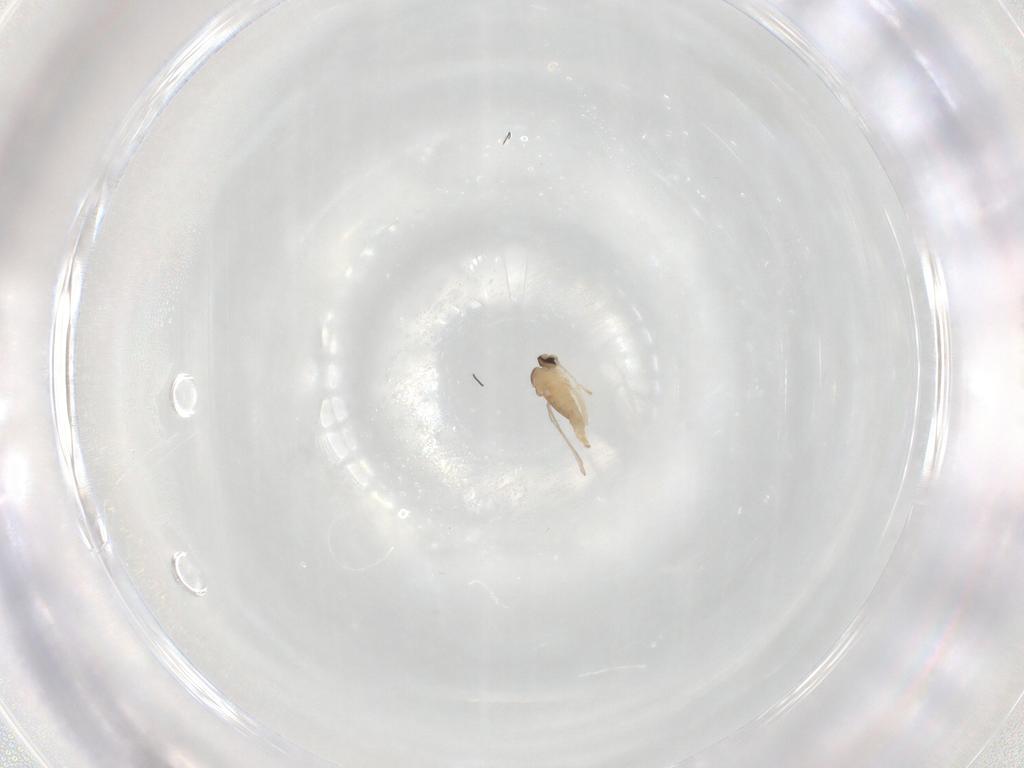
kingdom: Animalia
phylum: Arthropoda
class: Insecta
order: Diptera
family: Cecidomyiidae
